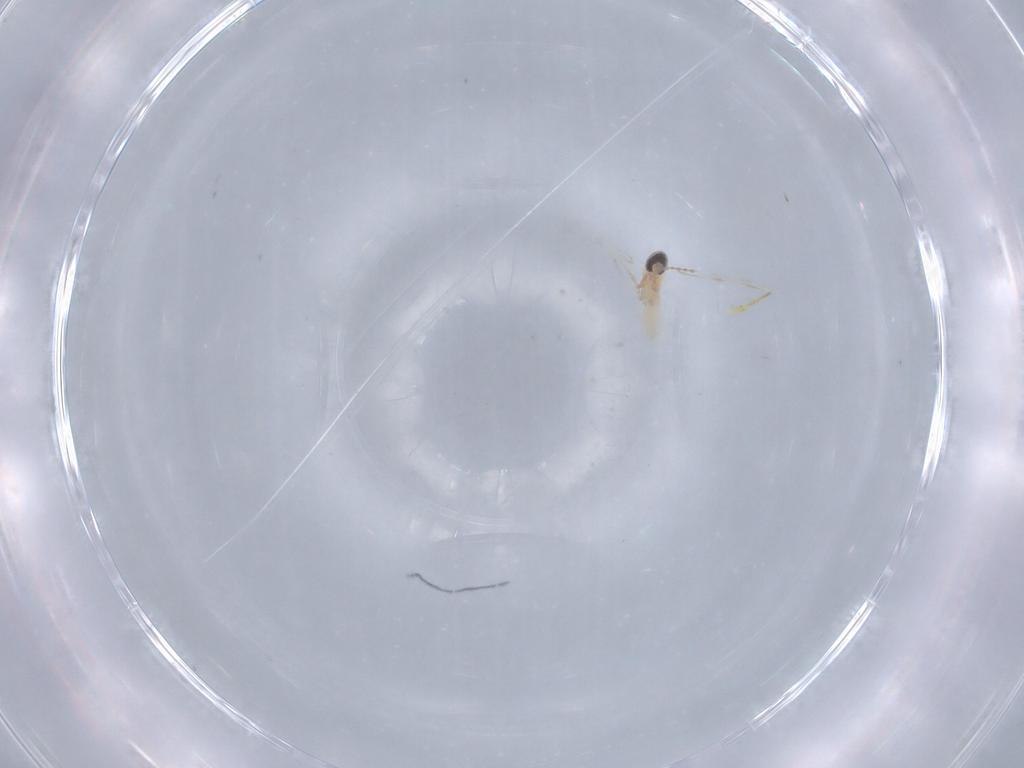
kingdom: Animalia
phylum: Arthropoda
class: Insecta
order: Diptera
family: Cecidomyiidae
